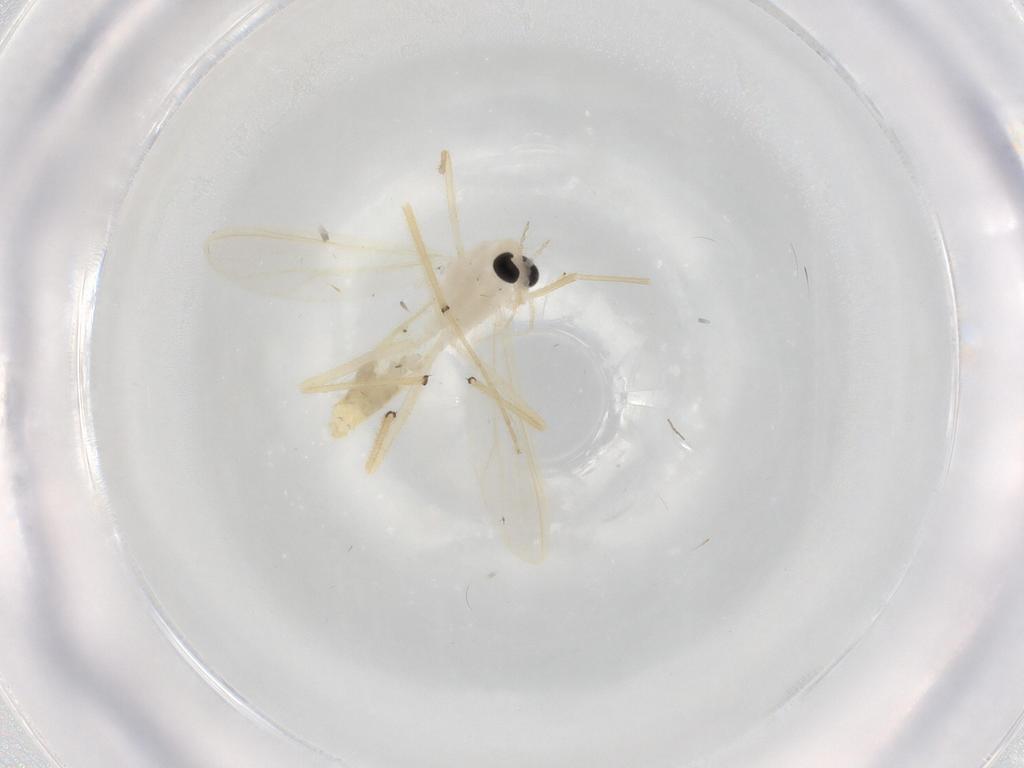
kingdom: Animalia
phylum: Arthropoda
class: Insecta
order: Diptera
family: Chironomidae
